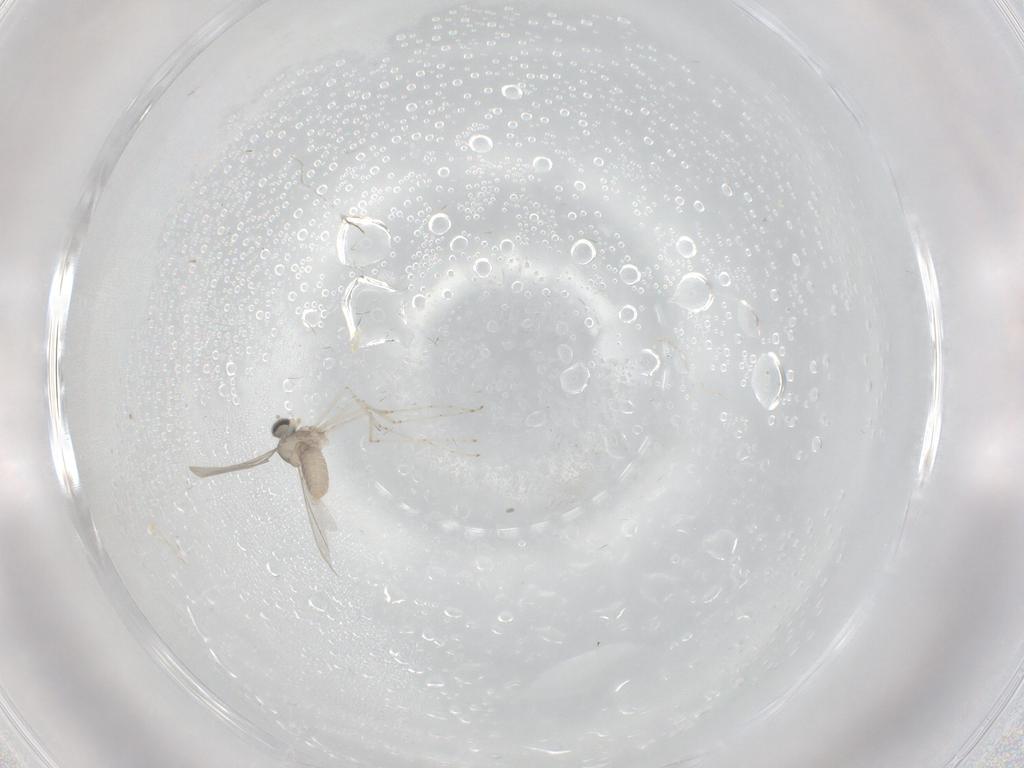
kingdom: Animalia
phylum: Arthropoda
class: Insecta
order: Diptera
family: Cecidomyiidae
